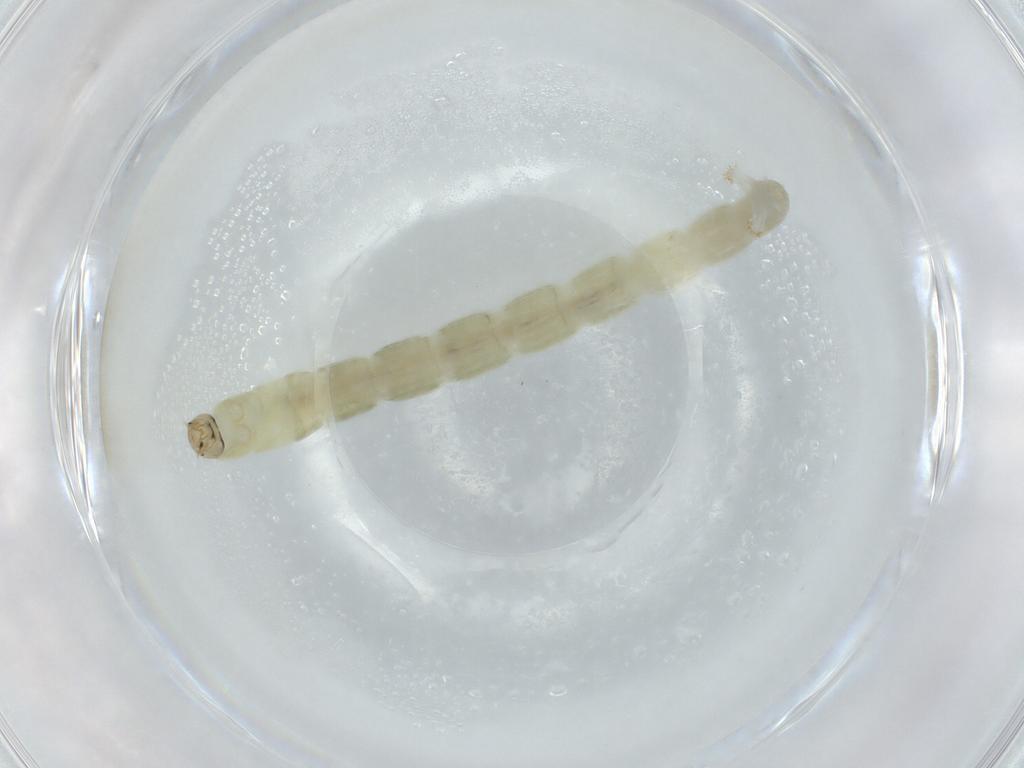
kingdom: Animalia
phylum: Arthropoda
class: Insecta
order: Diptera
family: Chironomidae
